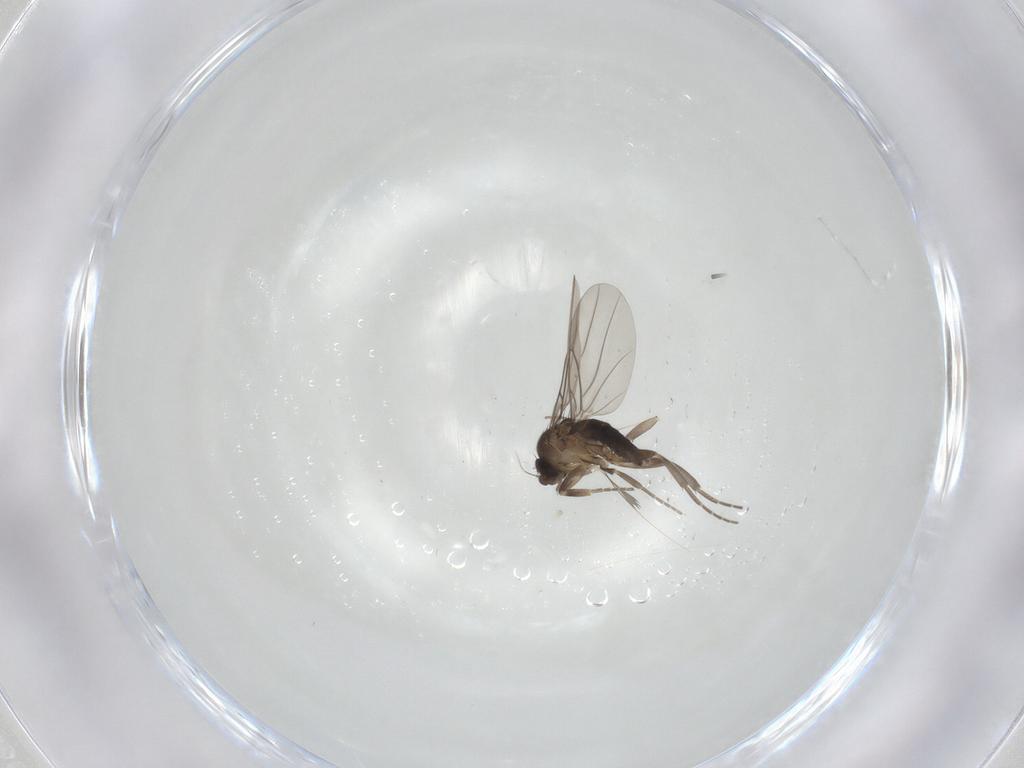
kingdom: Animalia
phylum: Arthropoda
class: Insecta
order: Diptera
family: Phoridae
